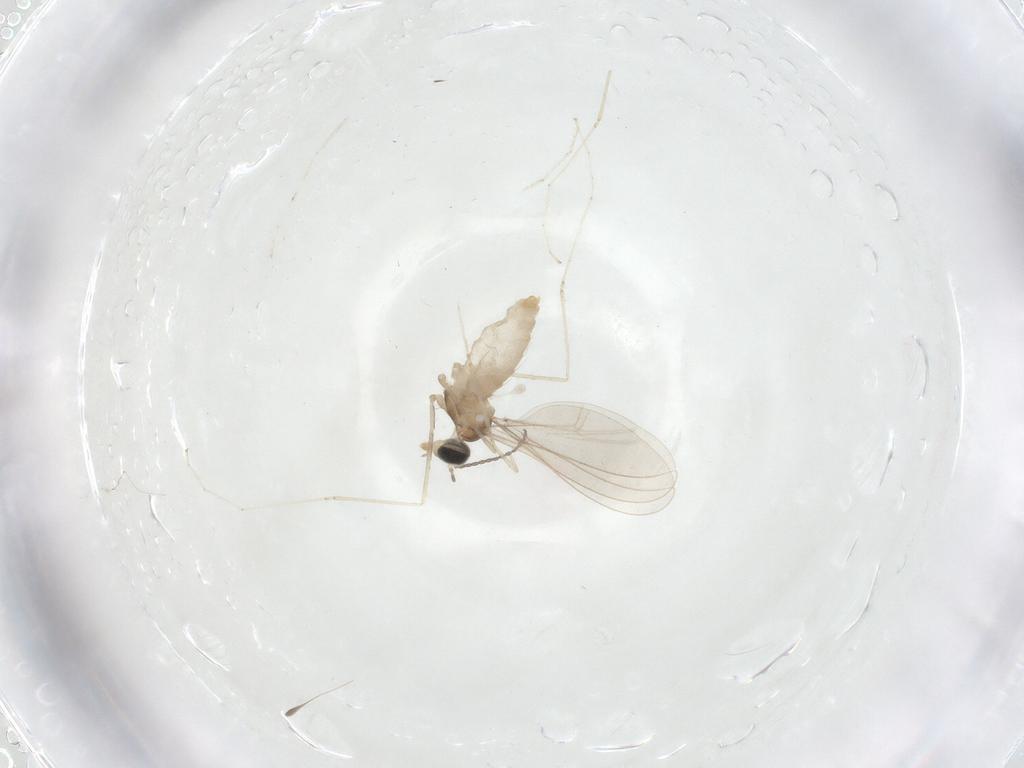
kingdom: Animalia
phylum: Arthropoda
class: Insecta
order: Diptera
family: Cecidomyiidae
